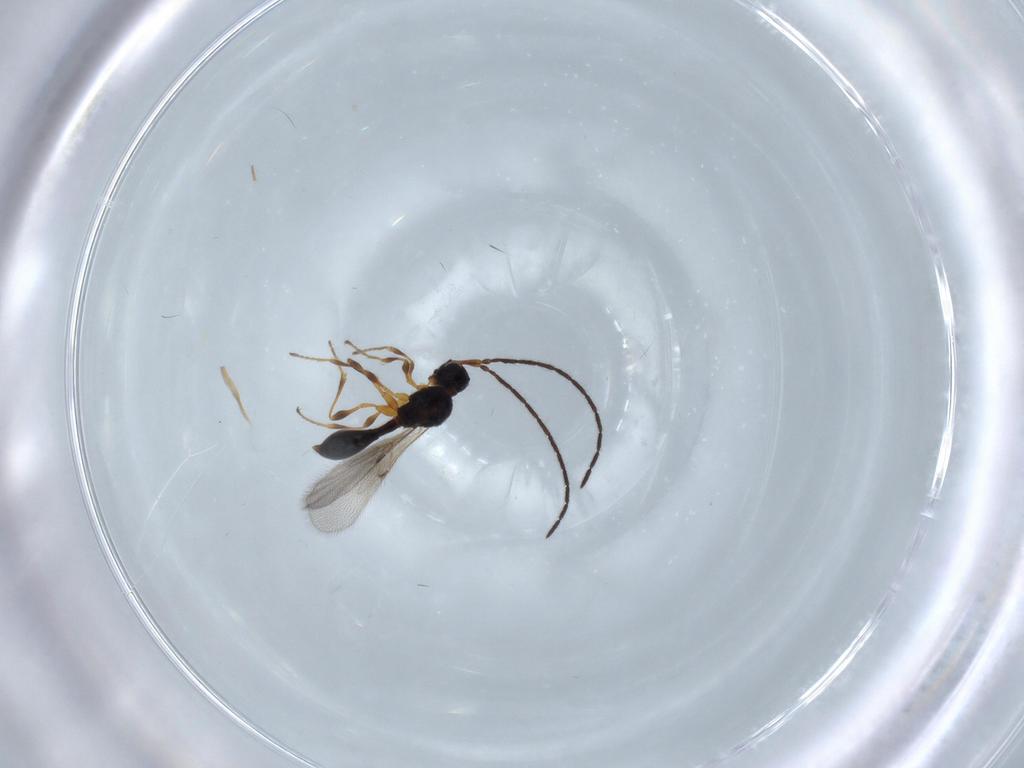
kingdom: Animalia
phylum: Arthropoda
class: Insecta
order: Hymenoptera
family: Diapriidae
